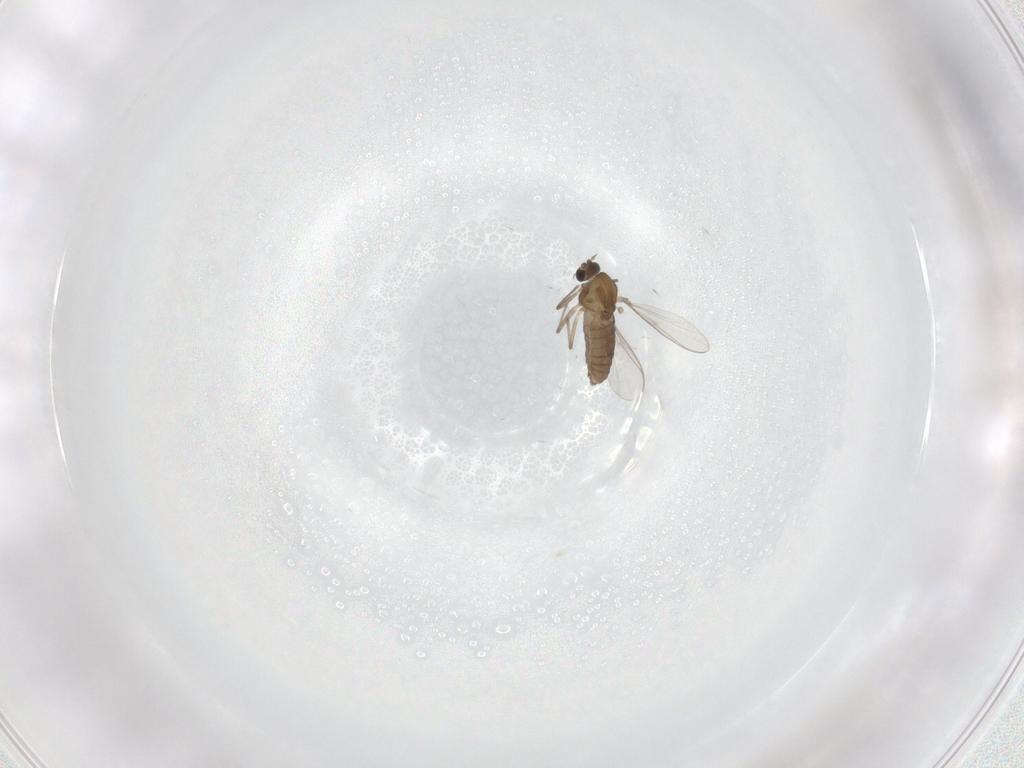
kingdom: Animalia
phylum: Arthropoda
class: Insecta
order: Diptera
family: Chironomidae
